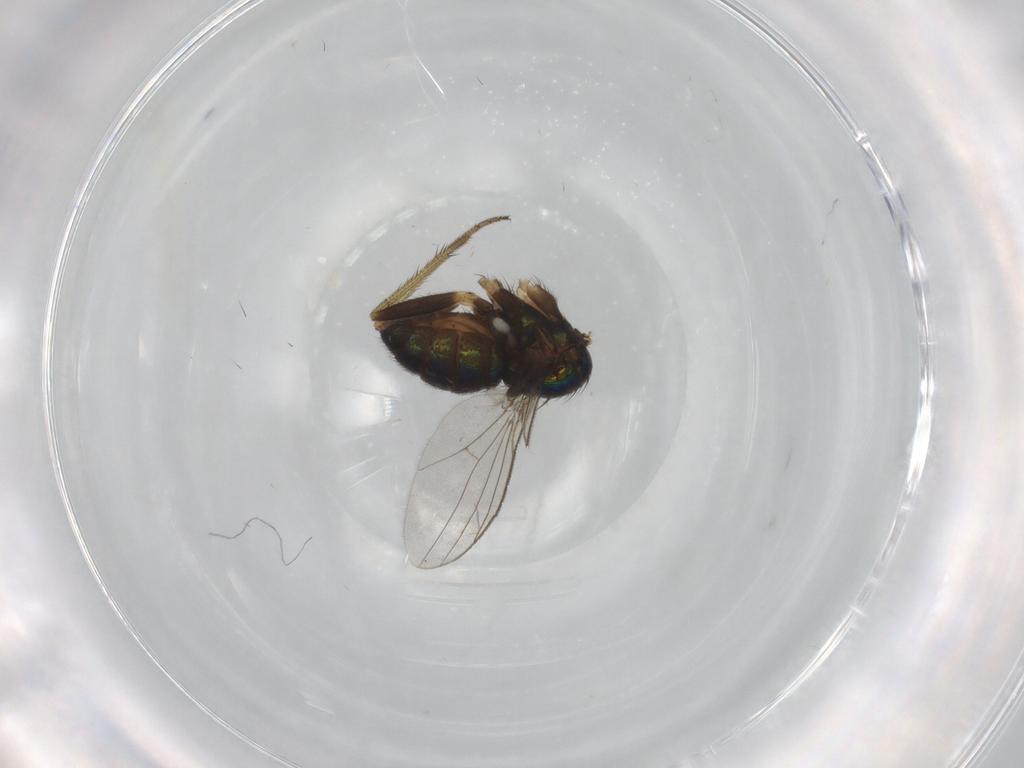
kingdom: Animalia
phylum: Arthropoda
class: Insecta
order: Diptera
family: Dolichopodidae
